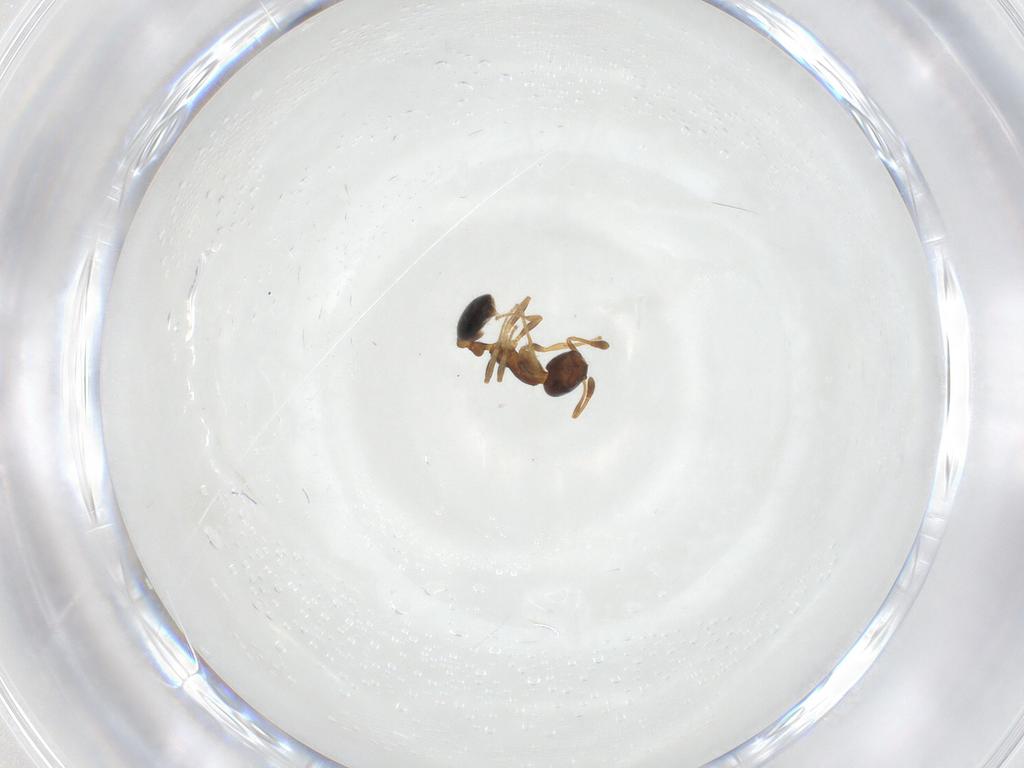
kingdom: Animalia
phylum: Arthropoda
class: Insecta
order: Hymenoptera
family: Formicidae
